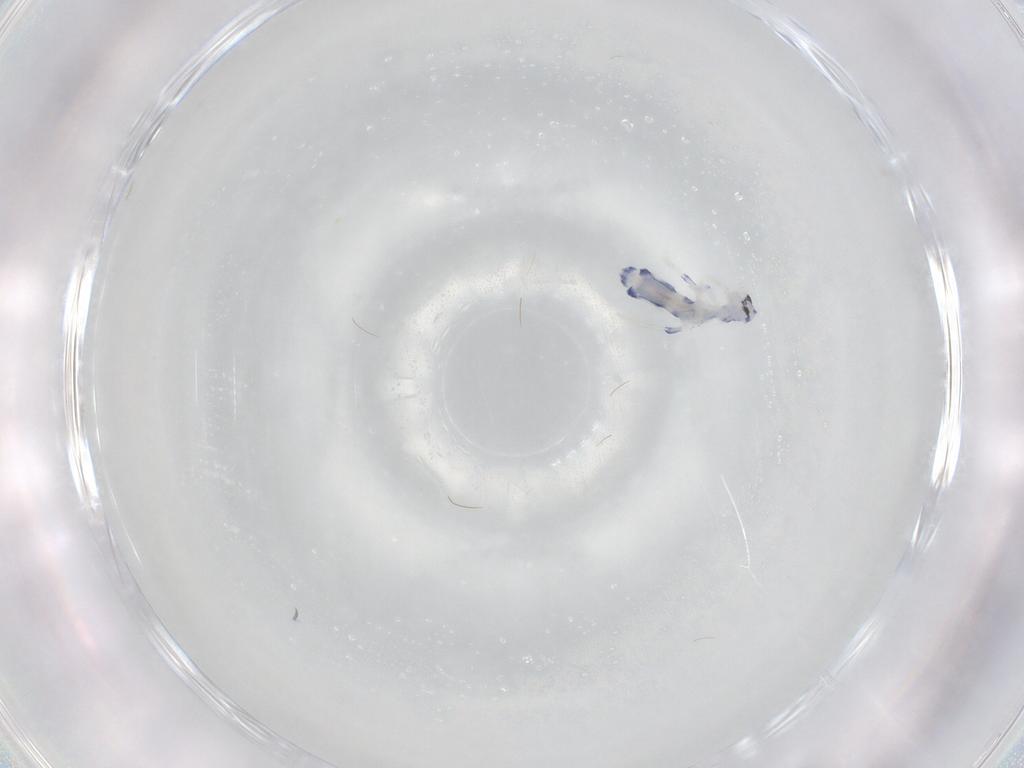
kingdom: Animalia
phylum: Arthropoda
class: Collembola
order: Entomobryomorpha
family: Entomobryidae
